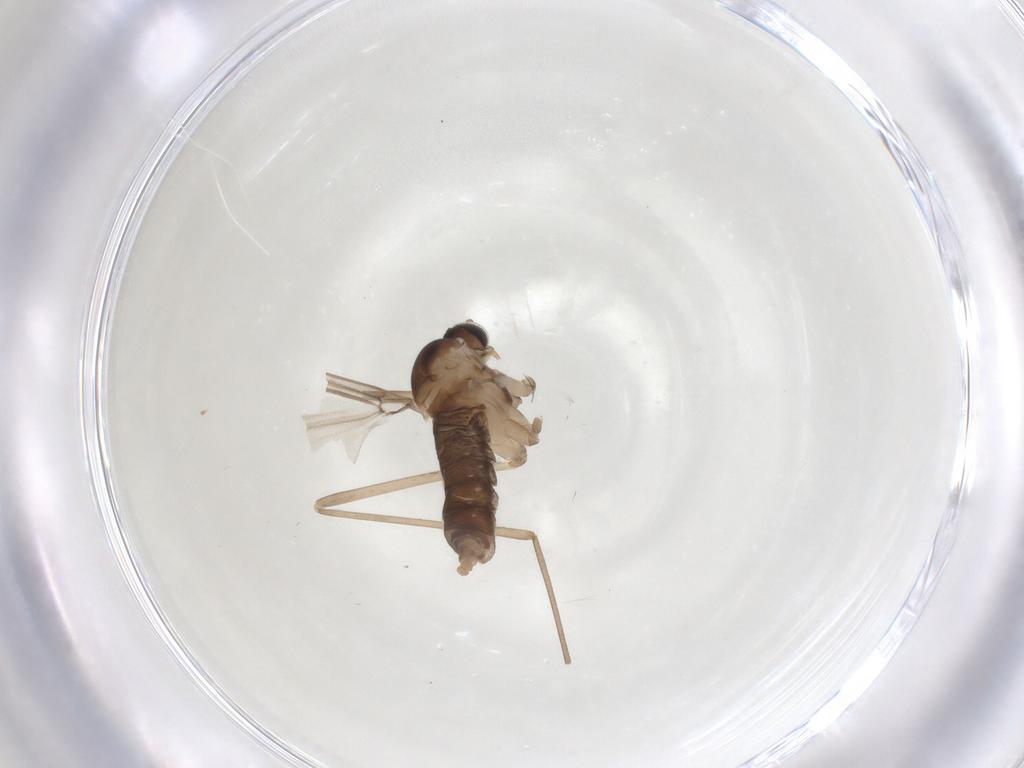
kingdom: Animalia
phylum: Arthropoda
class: Insecta
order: Diptera
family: Cecidomyiidae
